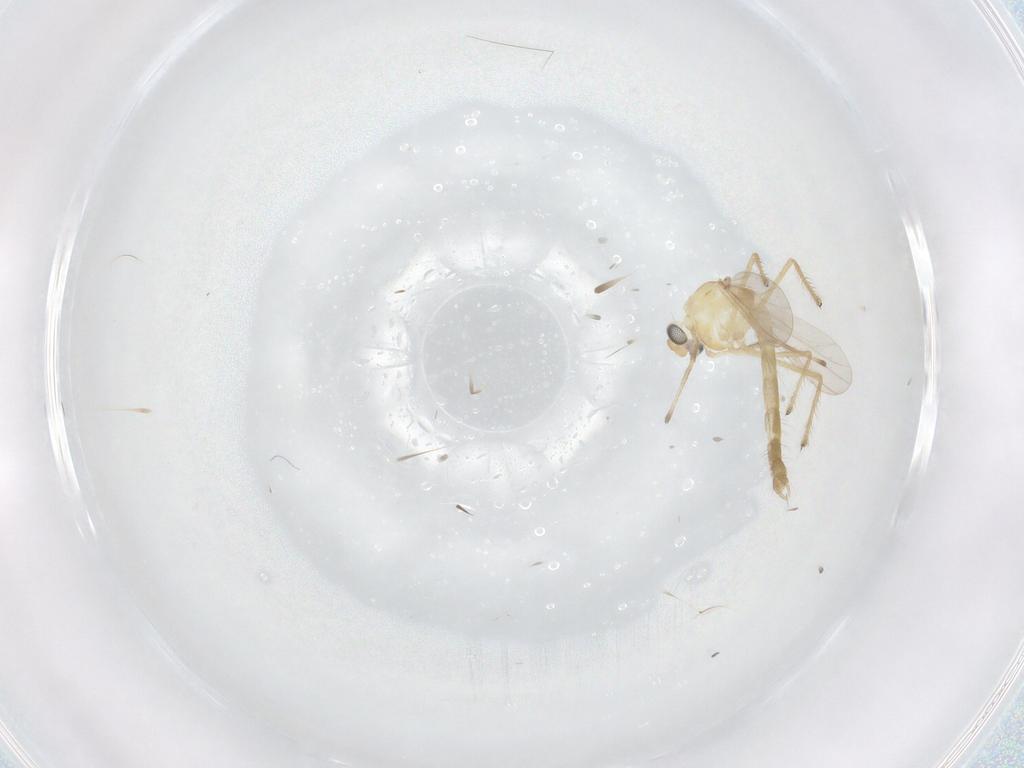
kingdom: Animalia
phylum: Arthropoda
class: Insecta
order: Diptera
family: Chironomidae
